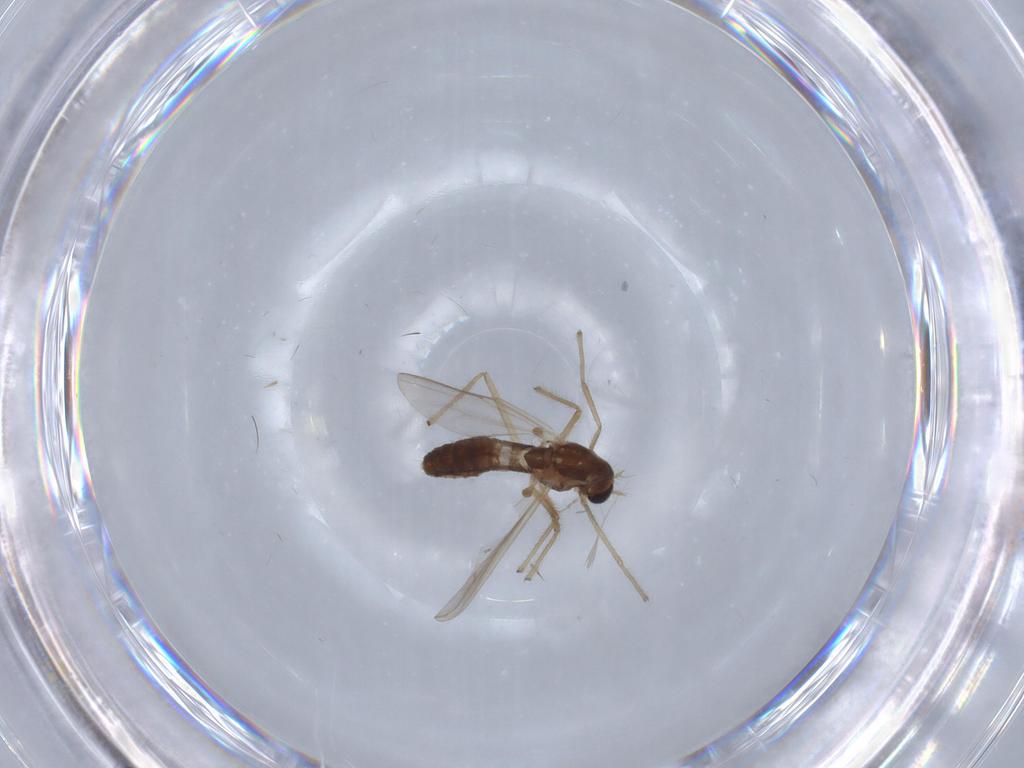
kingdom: Animalia
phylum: Arthropoda
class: Insecta
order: Diptera
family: Chironomidae
